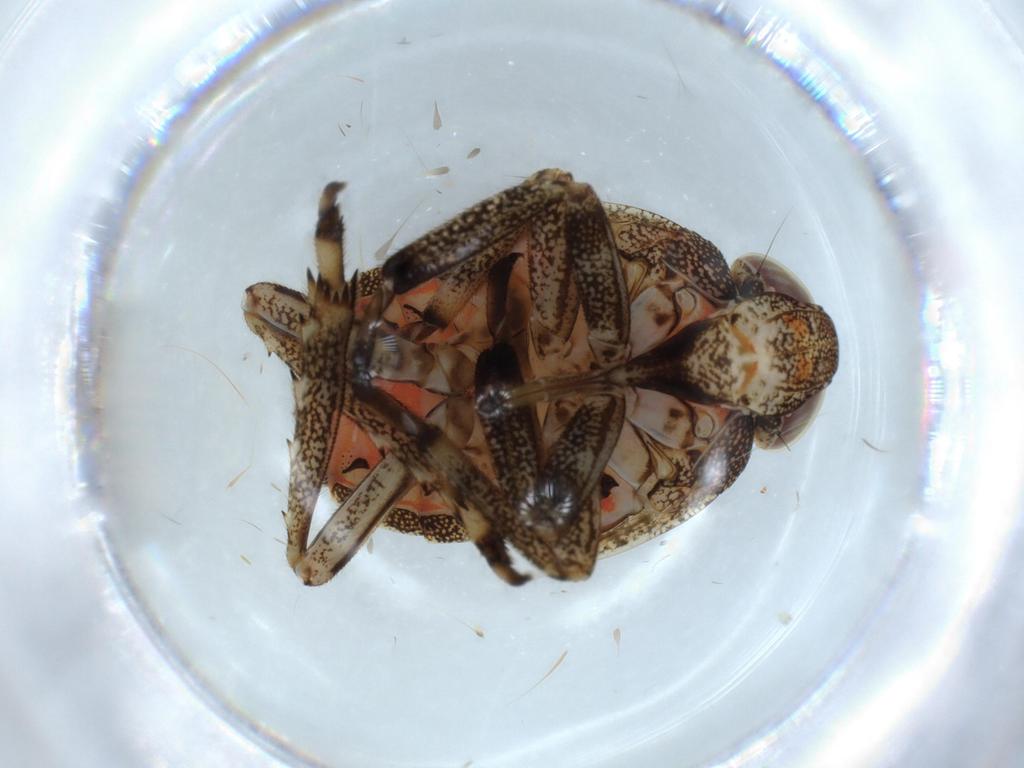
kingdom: Animalia
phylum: Arthropoda
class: Insecta
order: Hemiptera
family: Issidae
